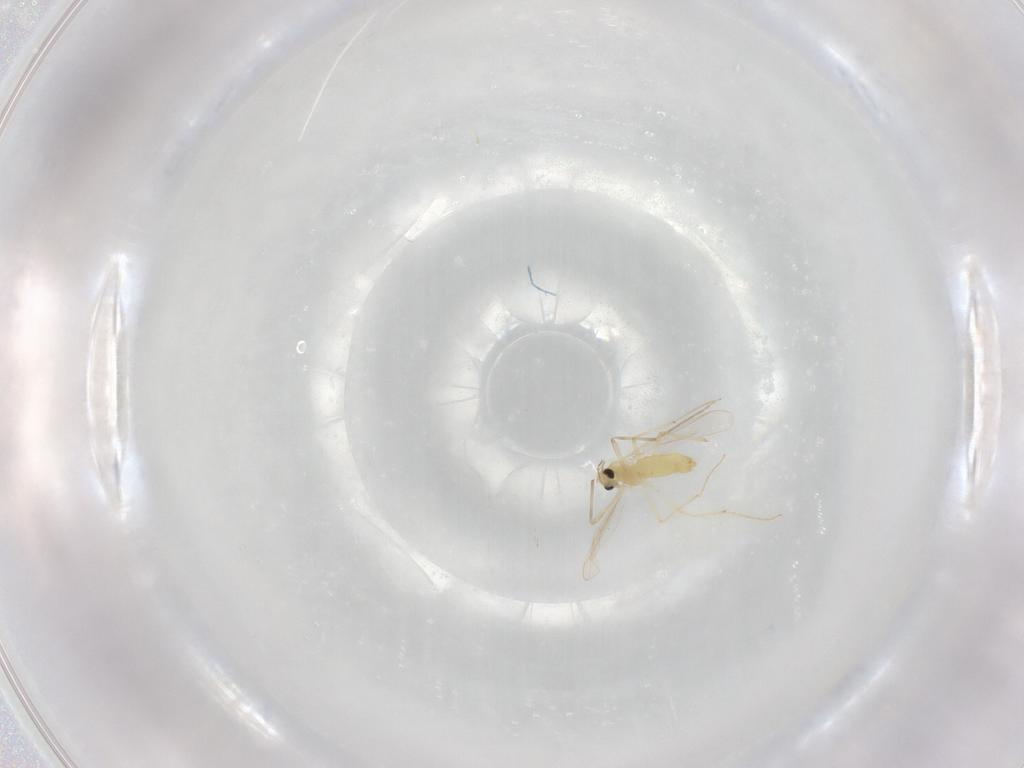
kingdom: Animalia
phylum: Arthropoda
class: Insecta
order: Diptera
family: Chironomidae
